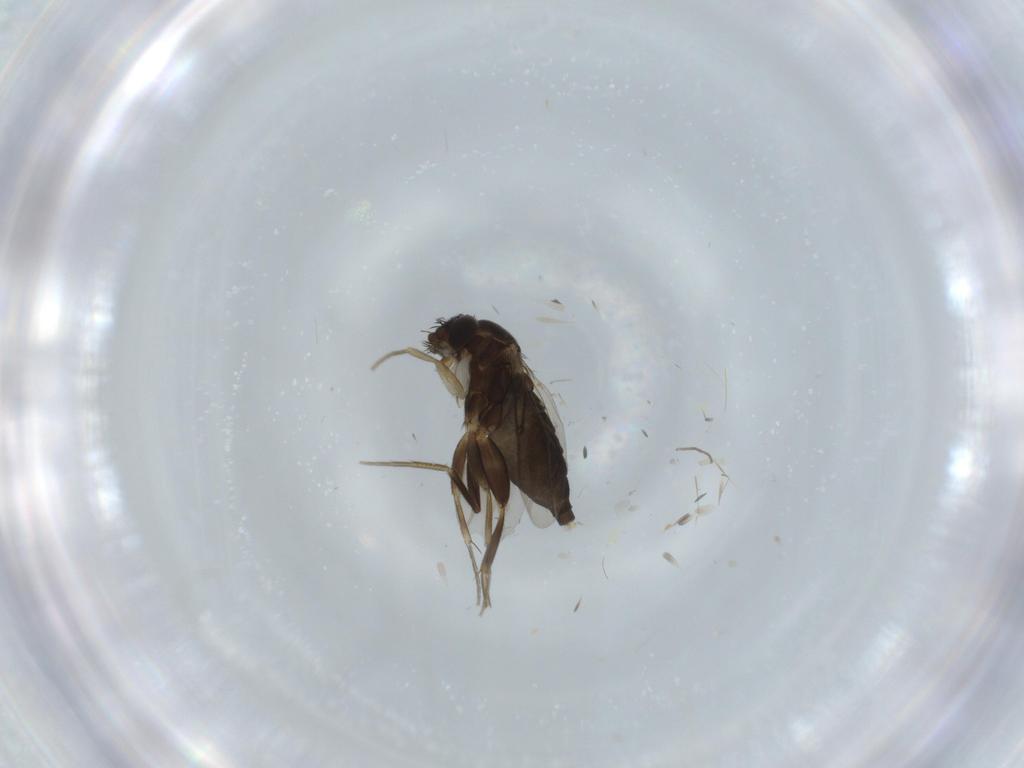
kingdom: Animalia
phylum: Arthropoda
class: Insecta
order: Diptera
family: Phoridae
